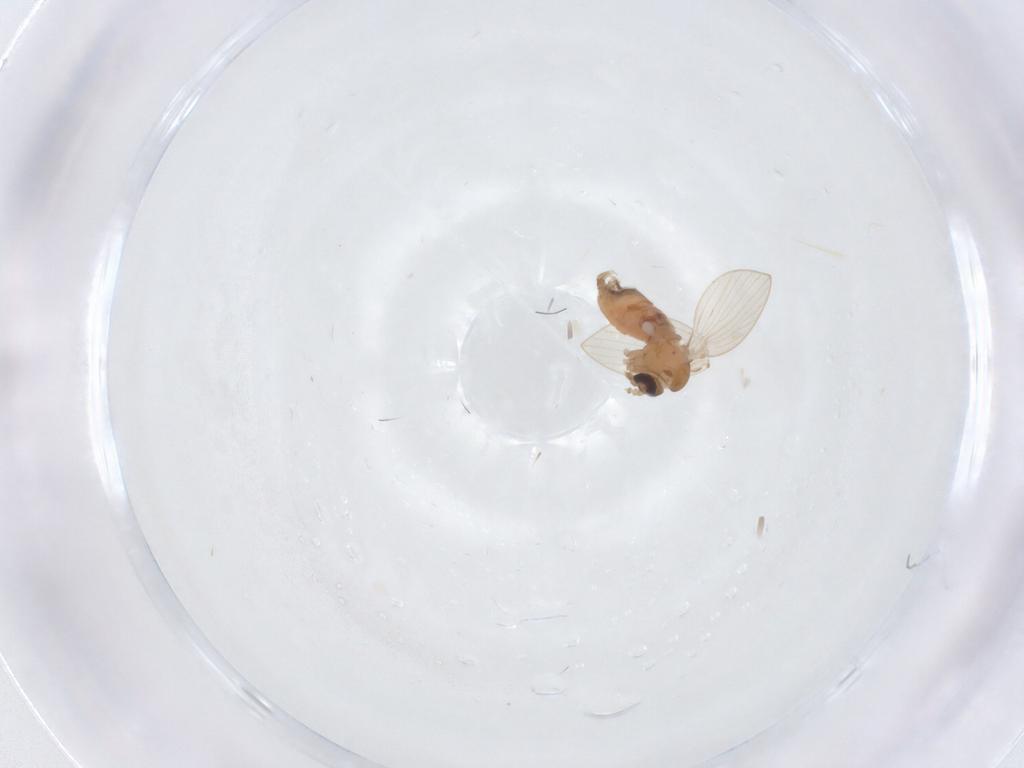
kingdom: Animalia
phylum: Arthropoda
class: Insecta
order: Diptera
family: Psychodidae
